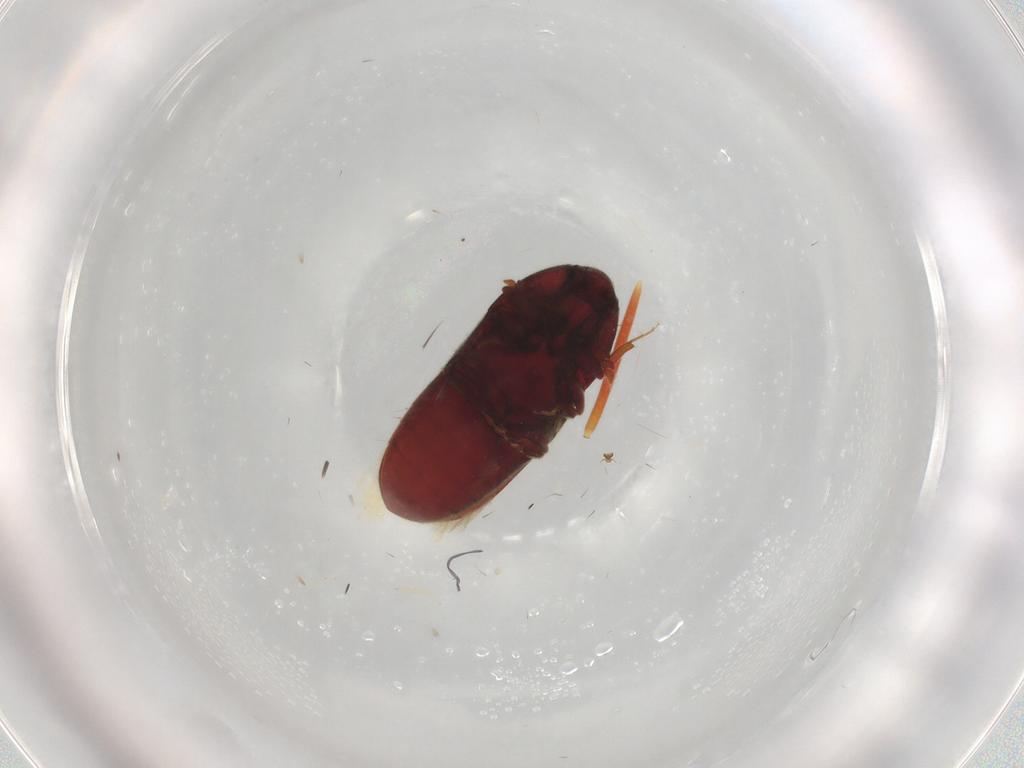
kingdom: Animalia
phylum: Arthropoda
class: Insecta
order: Coleoptera
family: Throscidae
